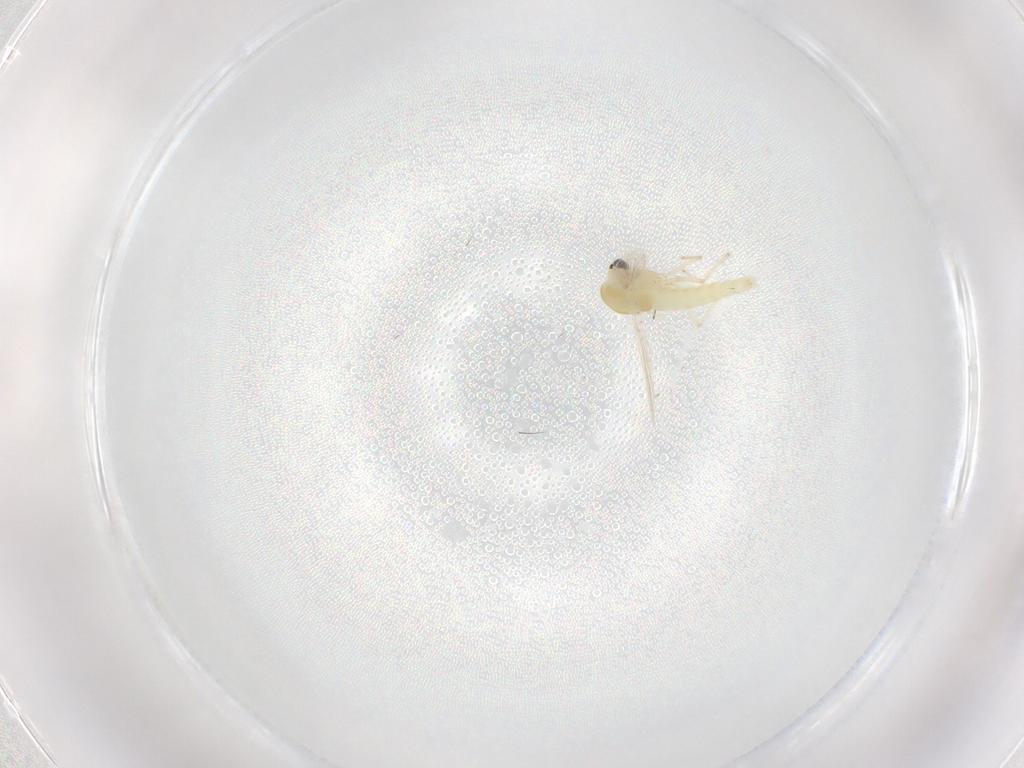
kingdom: Animalia
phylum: Arthropoda
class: Insecta
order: Diptera
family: Chironomidae
